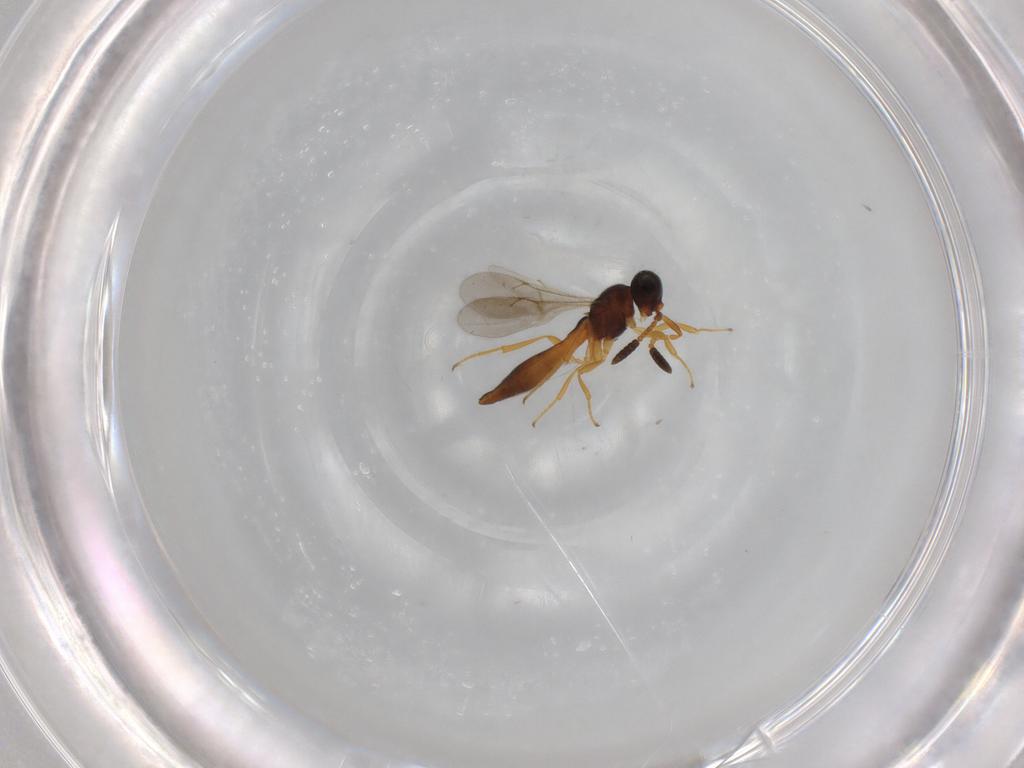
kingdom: Animalia
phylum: Arthropoda
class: Insecta
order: Hymenoptera
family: Scelionidae
